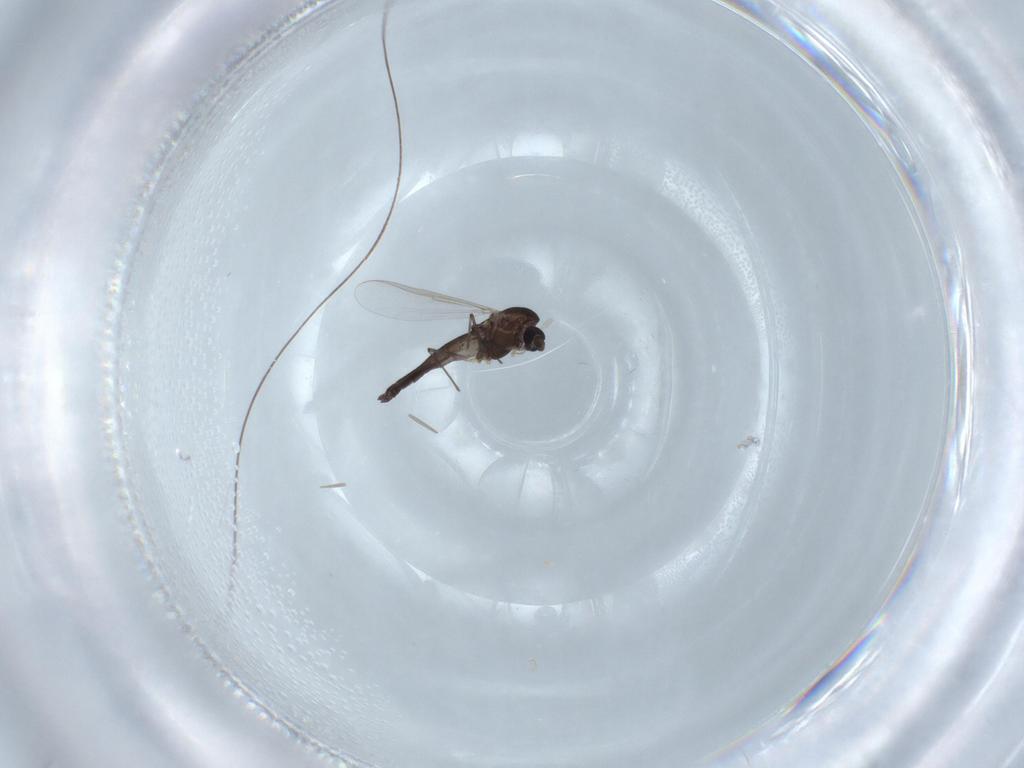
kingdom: Animalia
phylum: Arthropoda
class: Insecta
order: Diptera
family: Chironomidae
